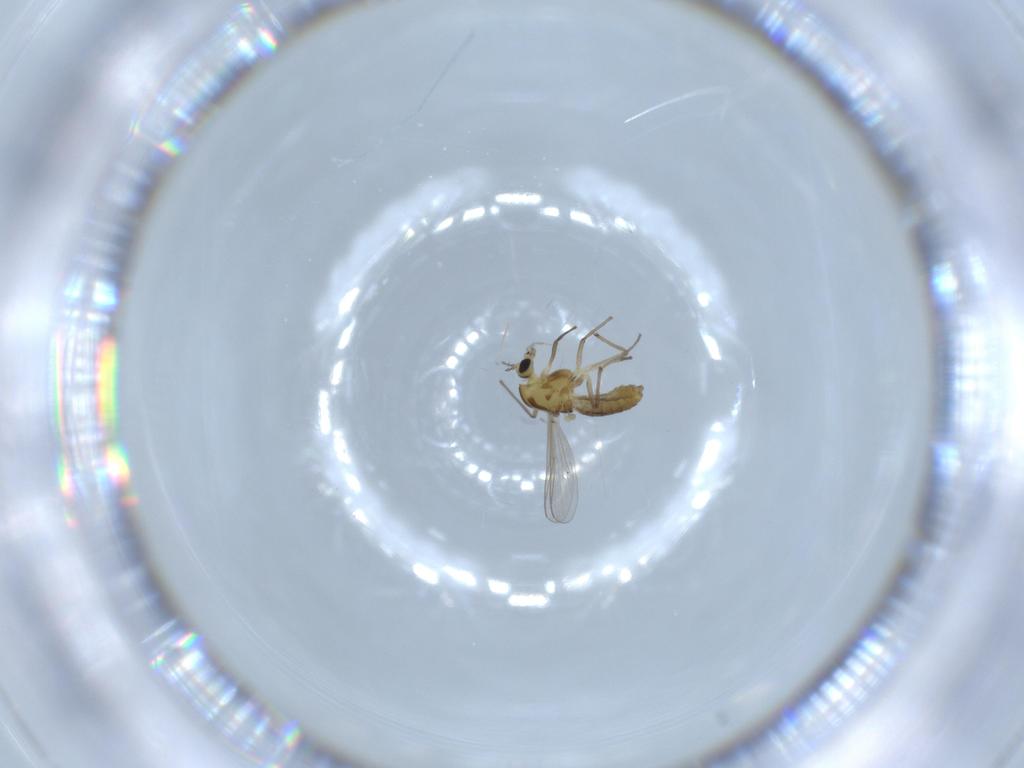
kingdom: Animalia
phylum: Arthropoda
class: Insecta
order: Diptera
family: Chironomidae
